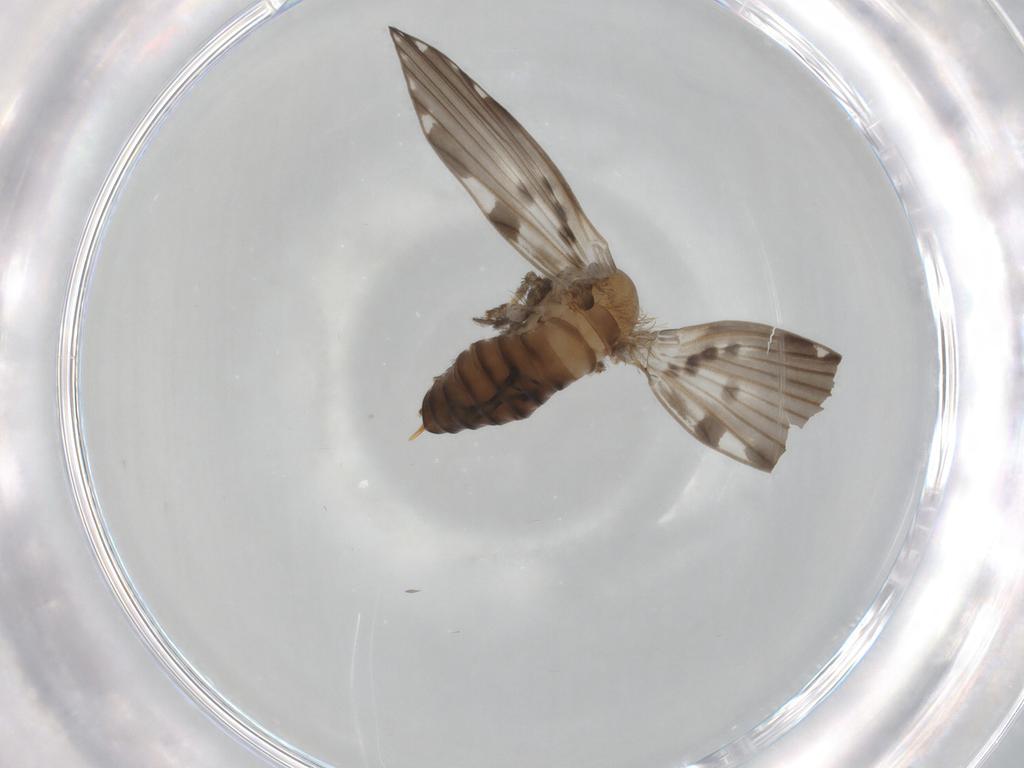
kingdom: Animalia
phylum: Arthropoda
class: Insecta
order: Diptera
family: Psychodidae
